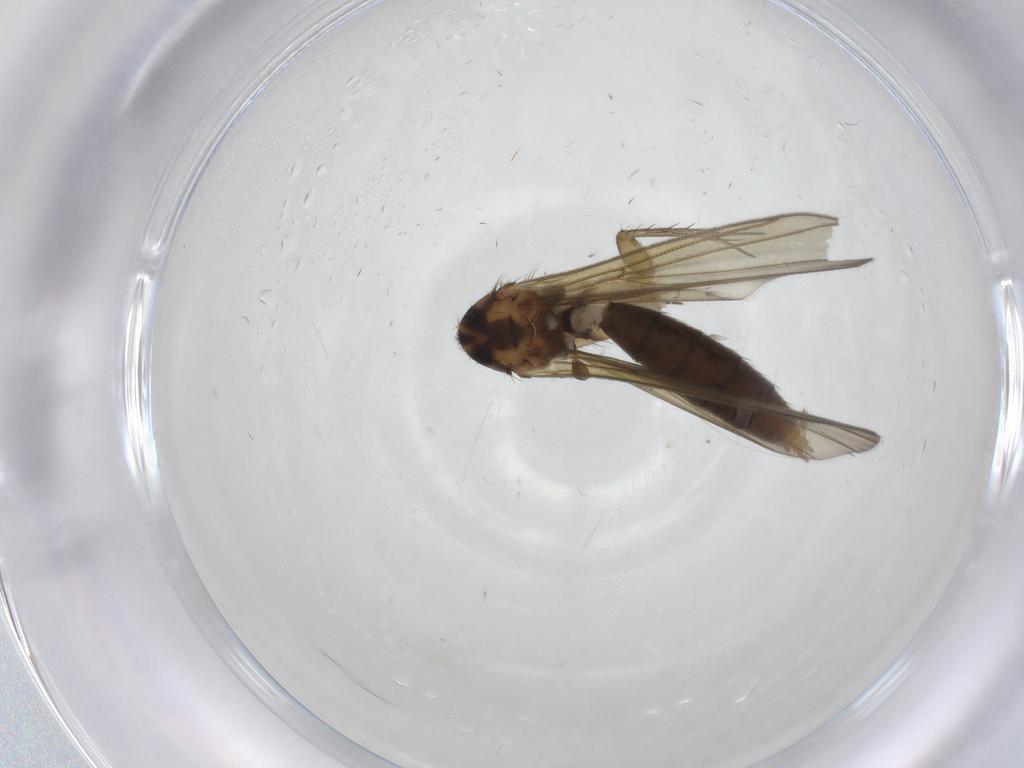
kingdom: Animalia
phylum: Arthropoda
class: Insecta
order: Diptera
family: Mycetophilidae
